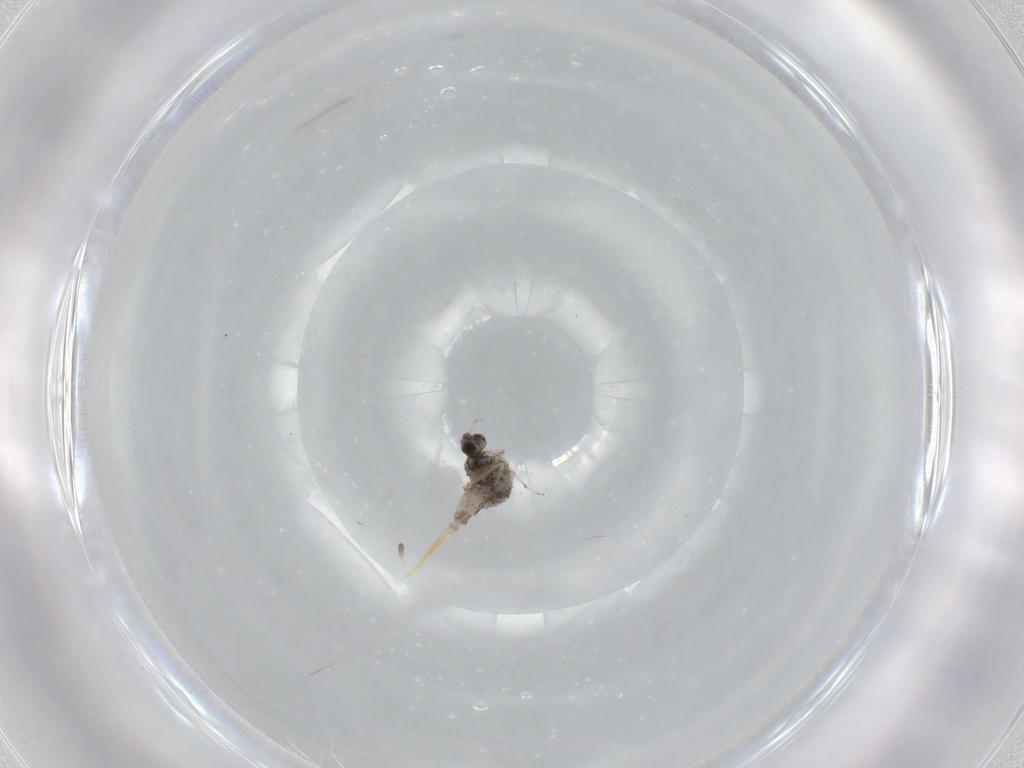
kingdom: Animalia
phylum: Arthropoda
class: Insecta
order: Diptera
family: Cecidomyiidae
